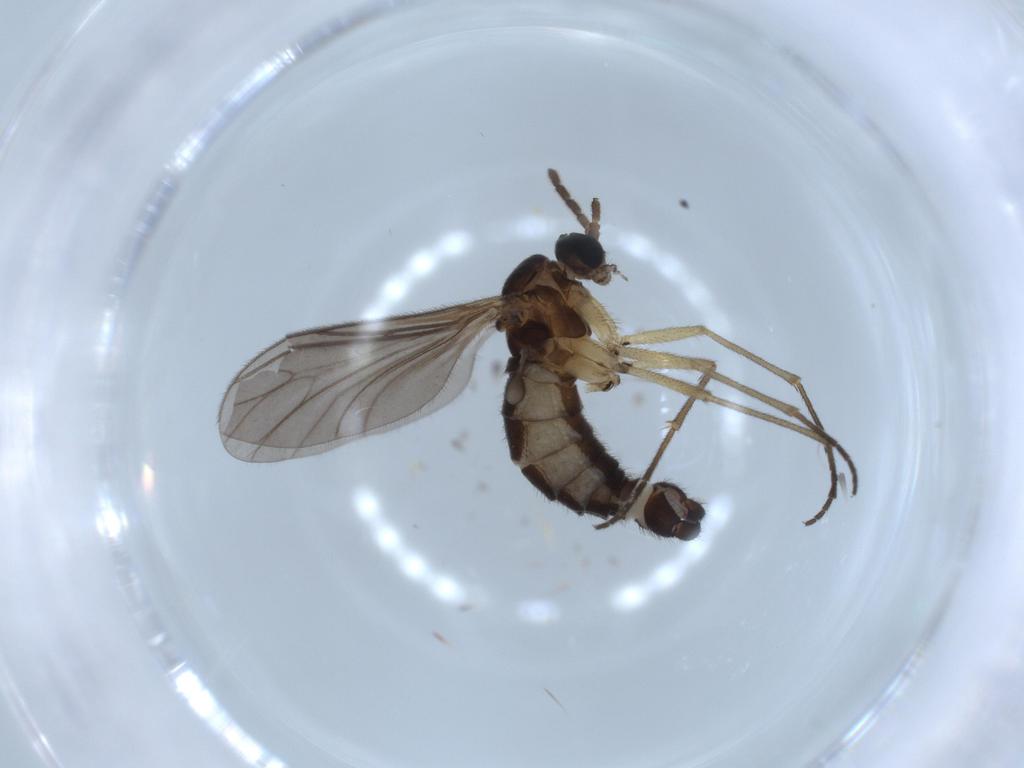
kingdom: Animalia
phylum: Arthropoda
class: Insecta
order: Diptera
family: Sciaridae
